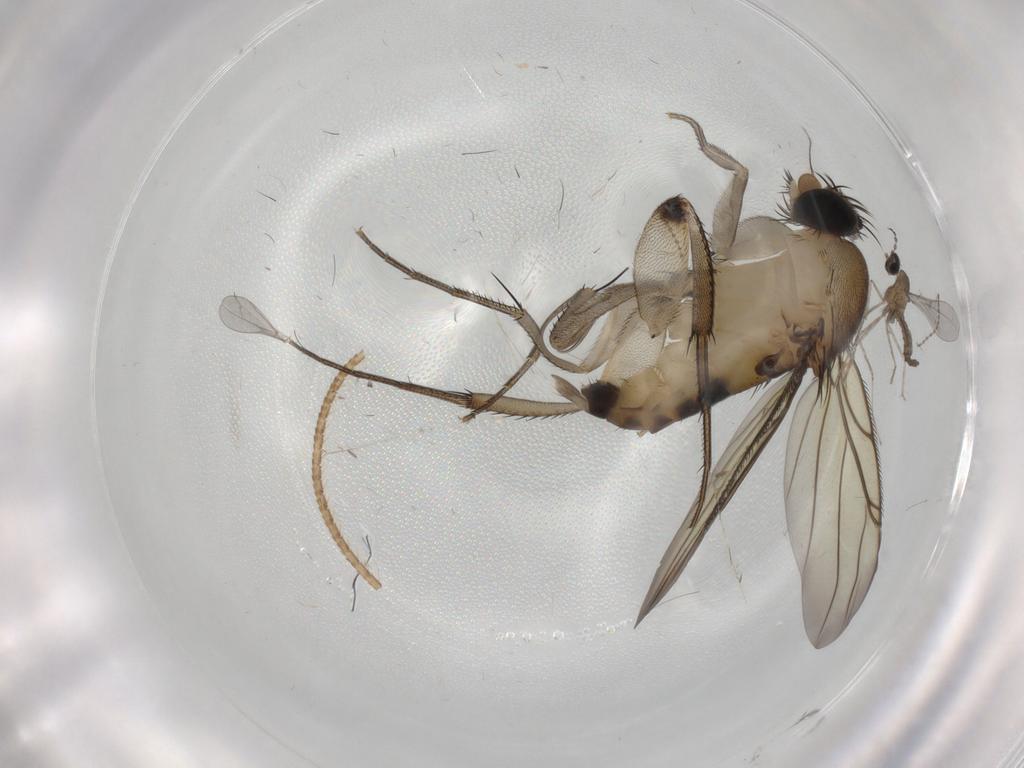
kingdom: Animalia
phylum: Arthropoda
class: Insecta
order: Diptera
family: Phoridae
